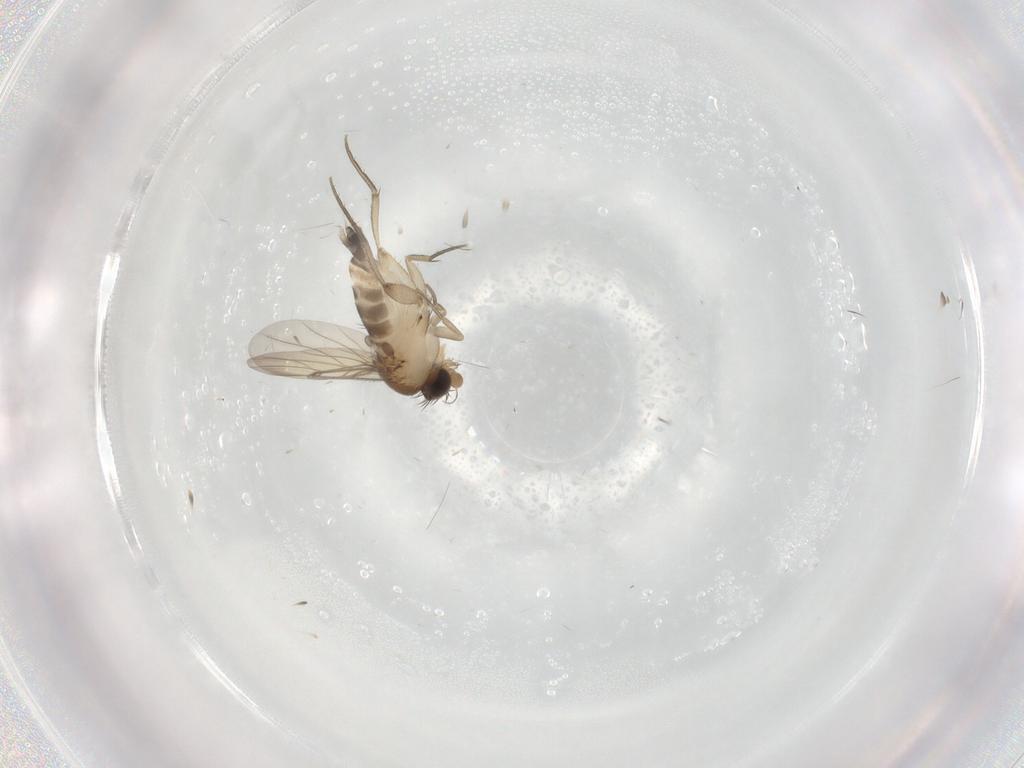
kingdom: Animalia
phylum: Arthropoda
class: Insecta
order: Diptera
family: Phoridae
